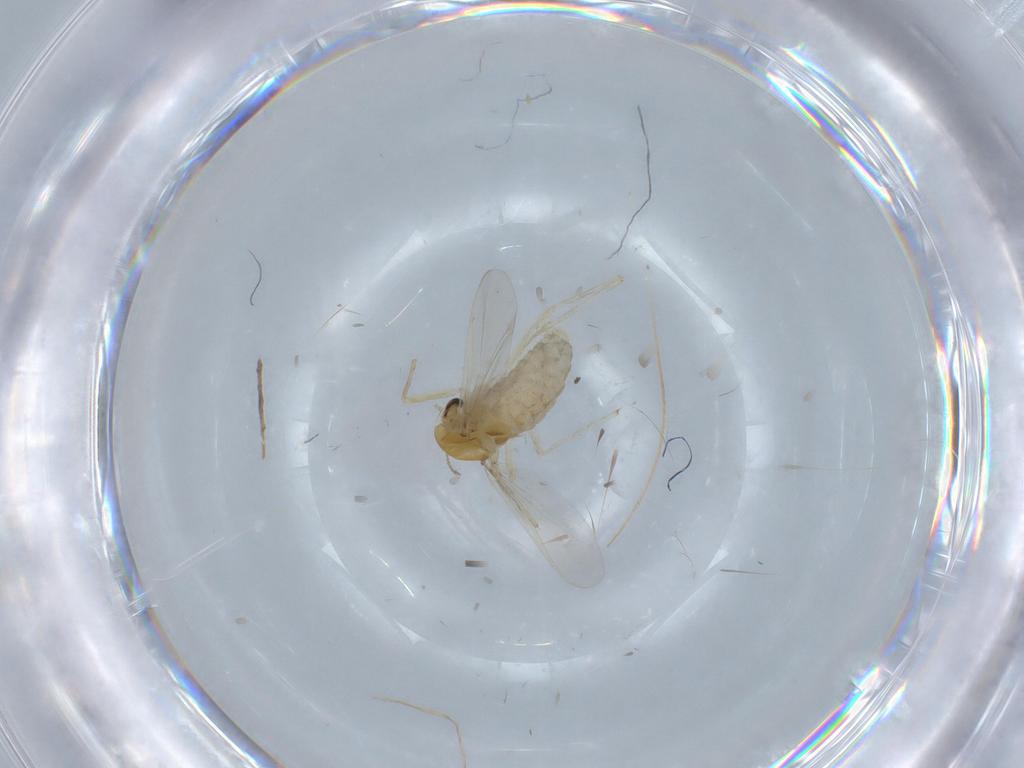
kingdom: Animalia
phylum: Arthropoda
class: Insecta
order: Diptera
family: Chironomidae
